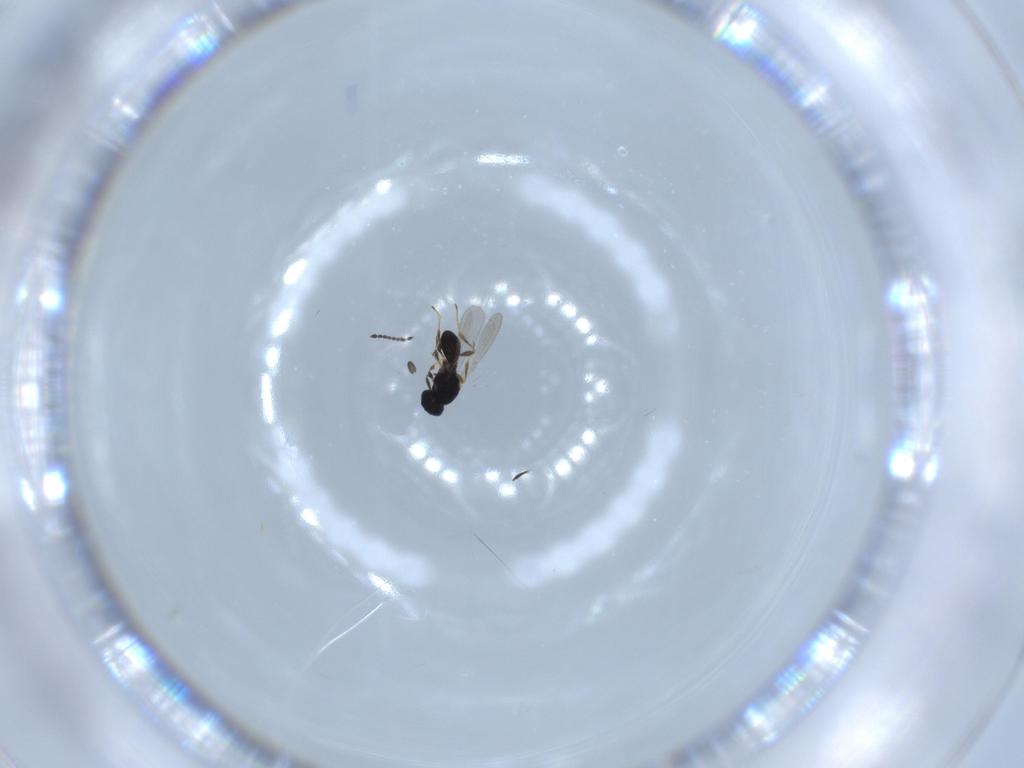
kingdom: Animalia
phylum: Arthropoda
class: Insecta
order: Hymenoptera
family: Platygastridae
